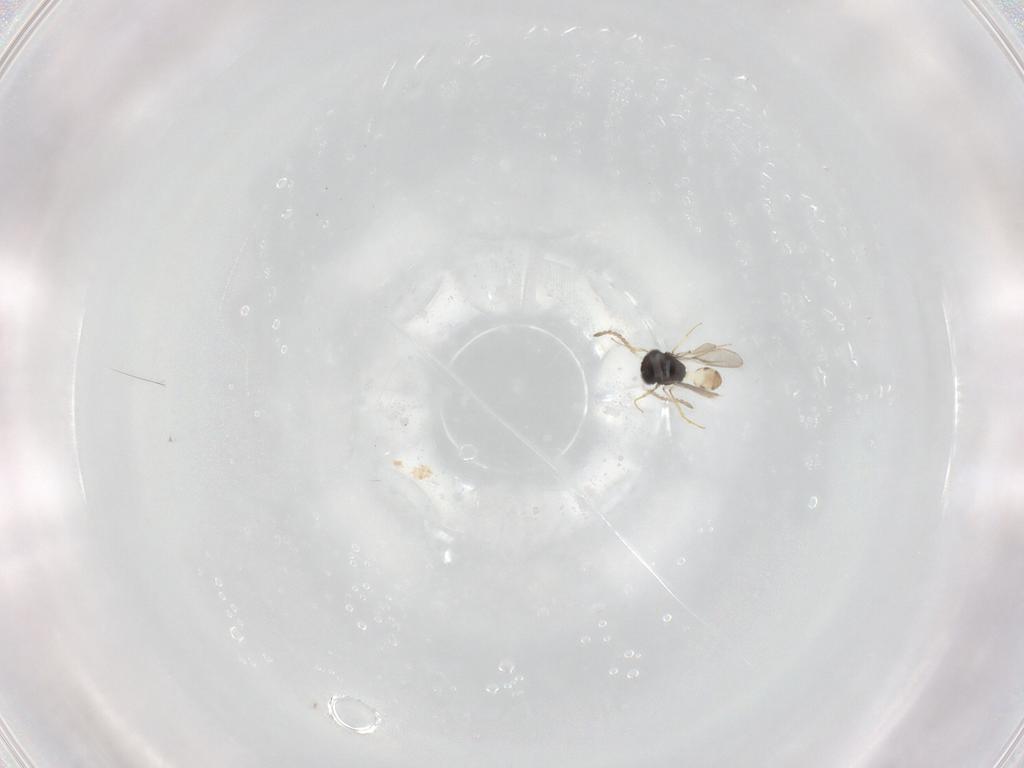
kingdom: Animalia
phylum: Arthropoda
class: Insecta
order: Hymenoptera
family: Scelionidae
